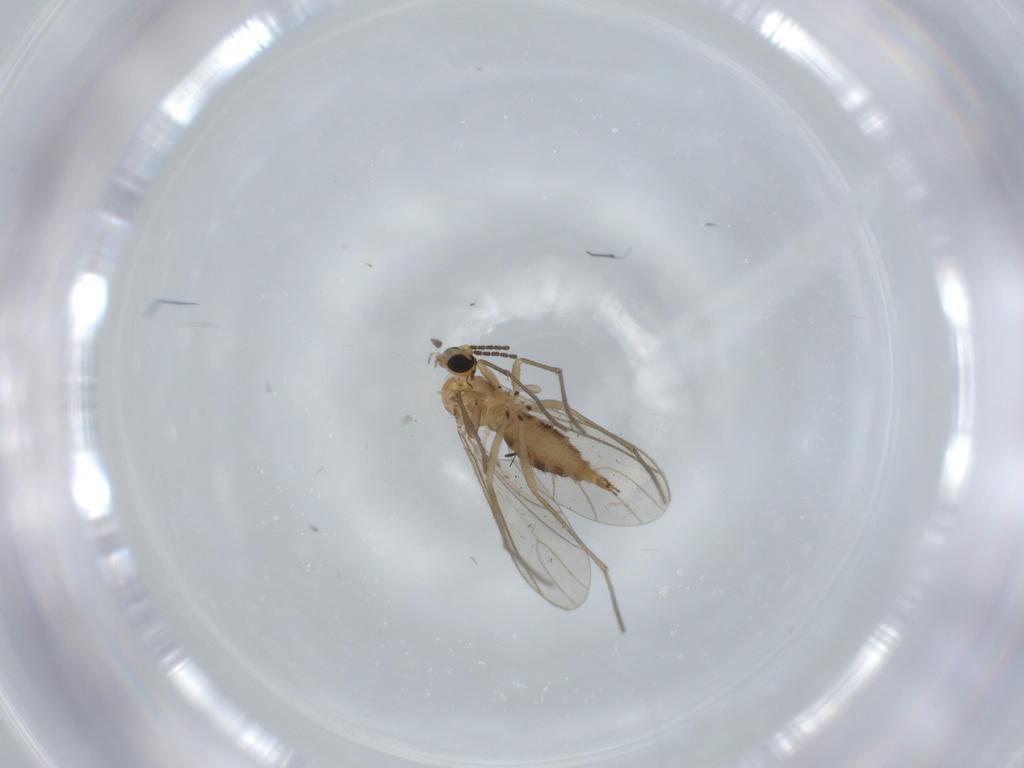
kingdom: Animalia
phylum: Arthropoda
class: Insecta
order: Diptera
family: Sciaridae
